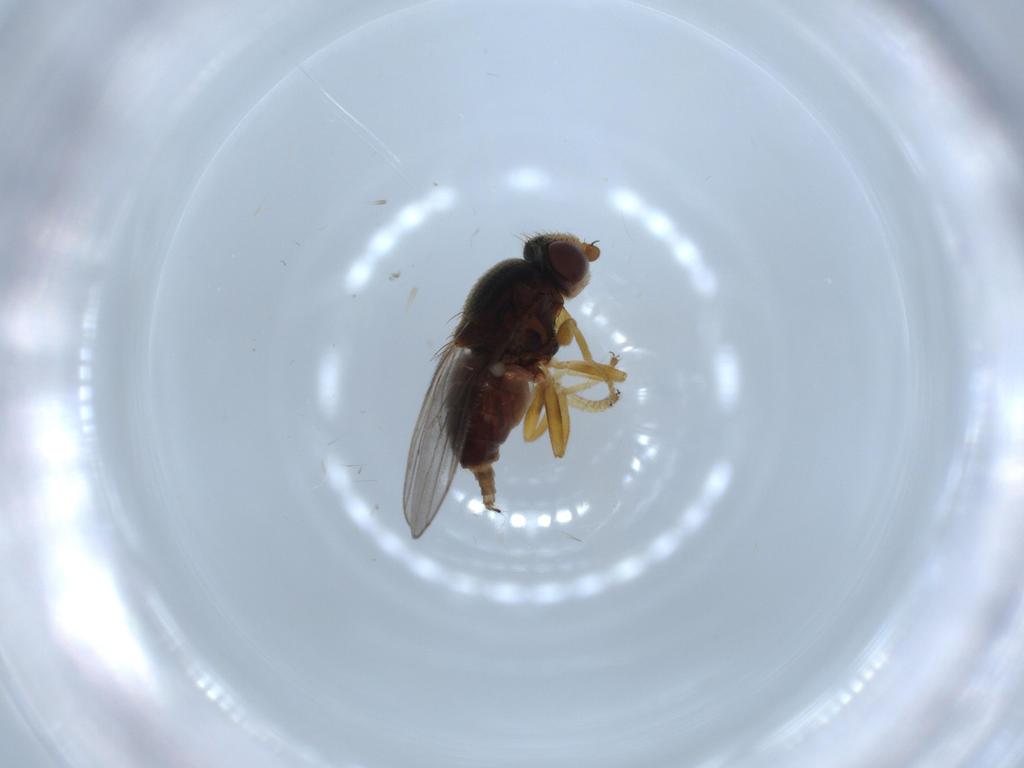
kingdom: Animalia
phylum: Arthropoda
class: Insecta
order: Diptera
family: Chloropidae
